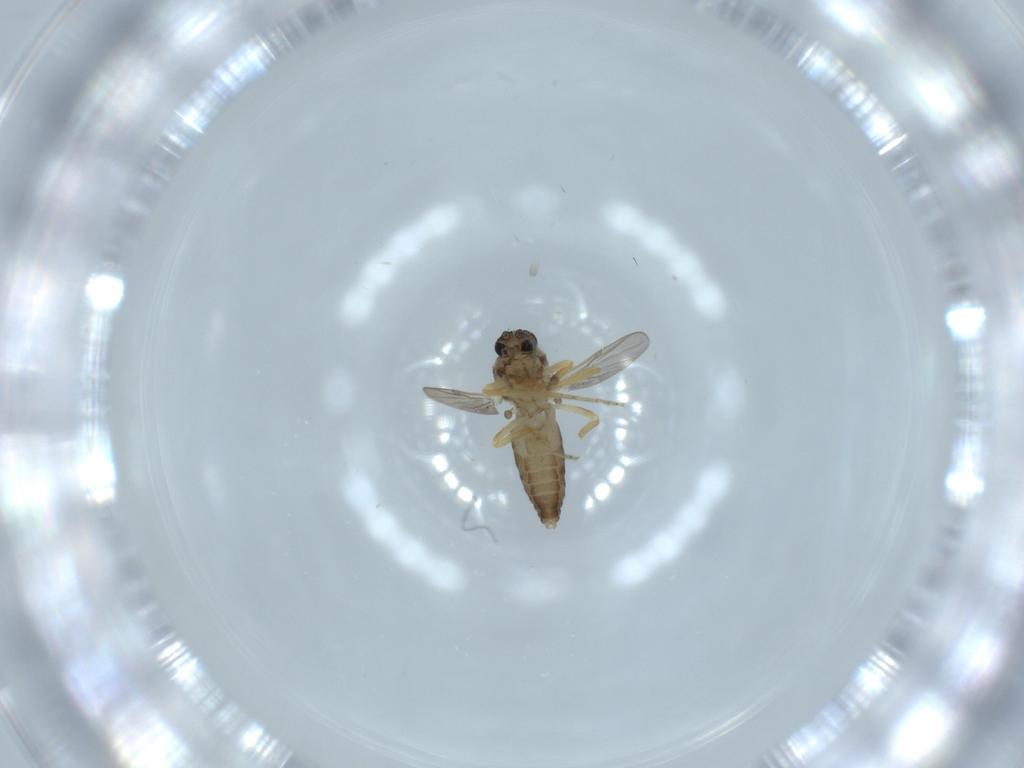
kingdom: Animalia
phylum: Arthropoda
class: Insecta
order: Diptera
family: Ceratopogonidae
